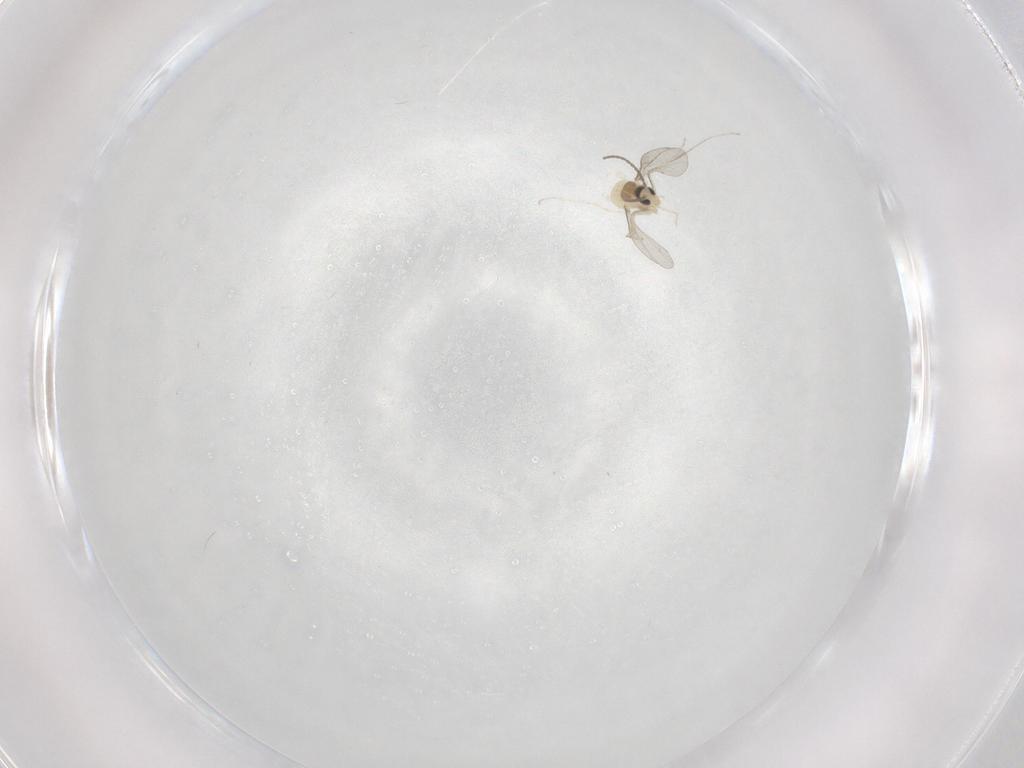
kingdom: Animalia
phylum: Arthropoda
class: Insecta
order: Diptera
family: Cecidomyiidae
